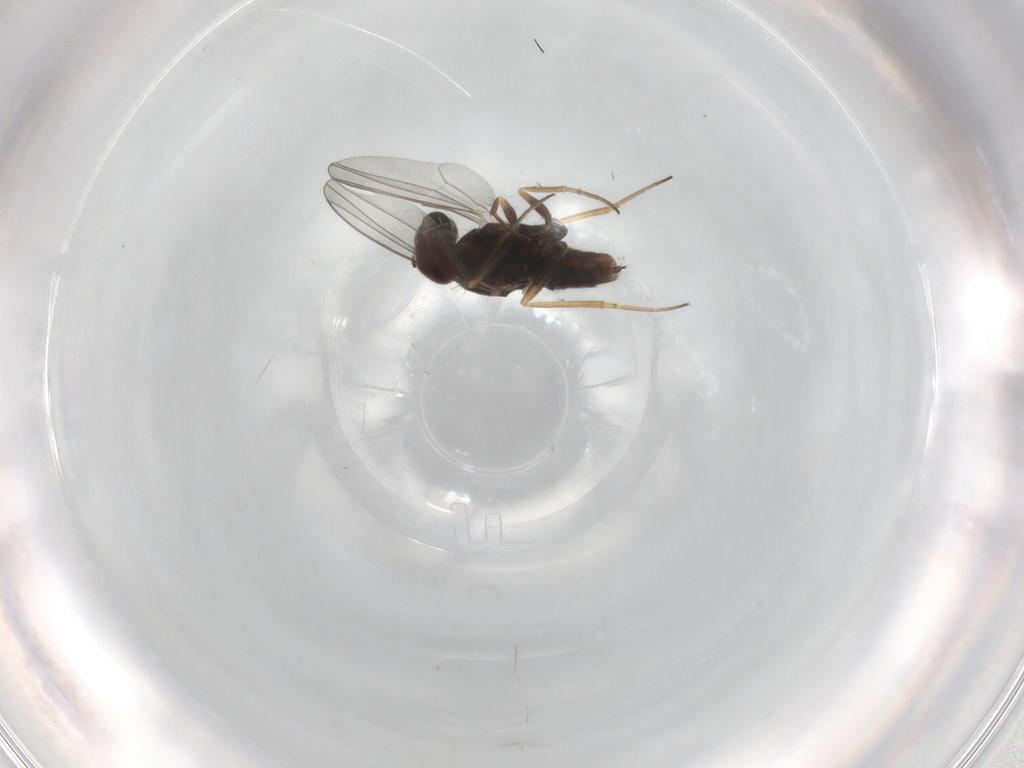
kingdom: Animalia
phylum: Arthropoda
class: Insecta
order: Diptera
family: Dolichopodidae
